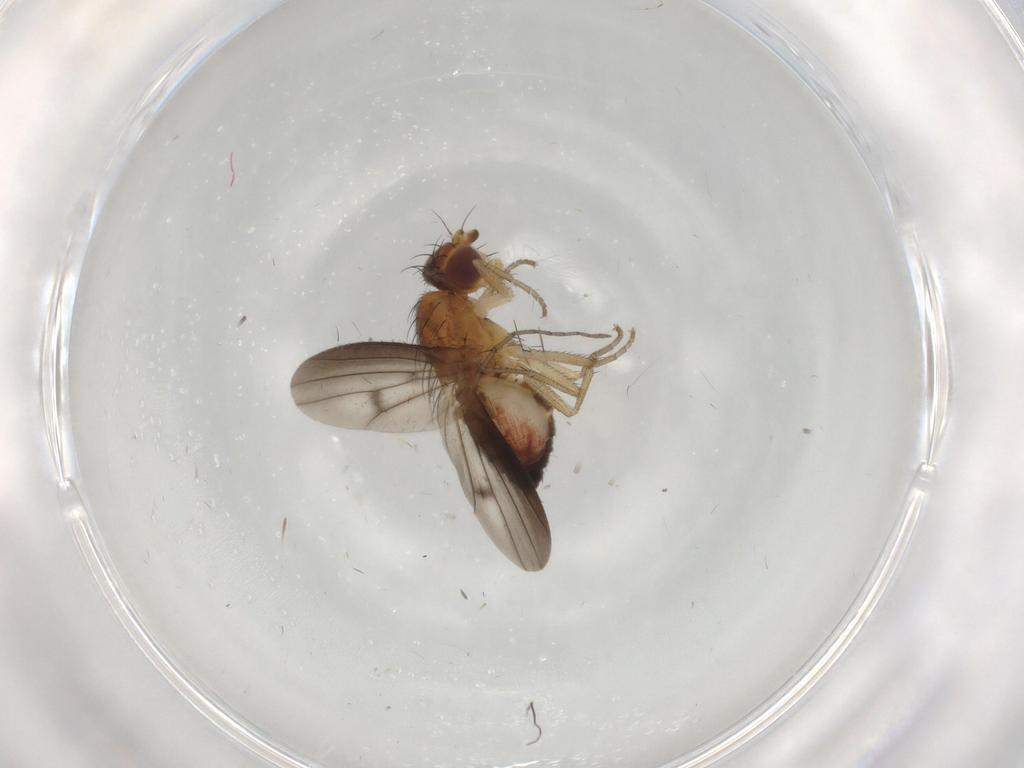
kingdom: Animalia
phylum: Arthropoda
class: Insecta
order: Diptera
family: Heleomyzidae
